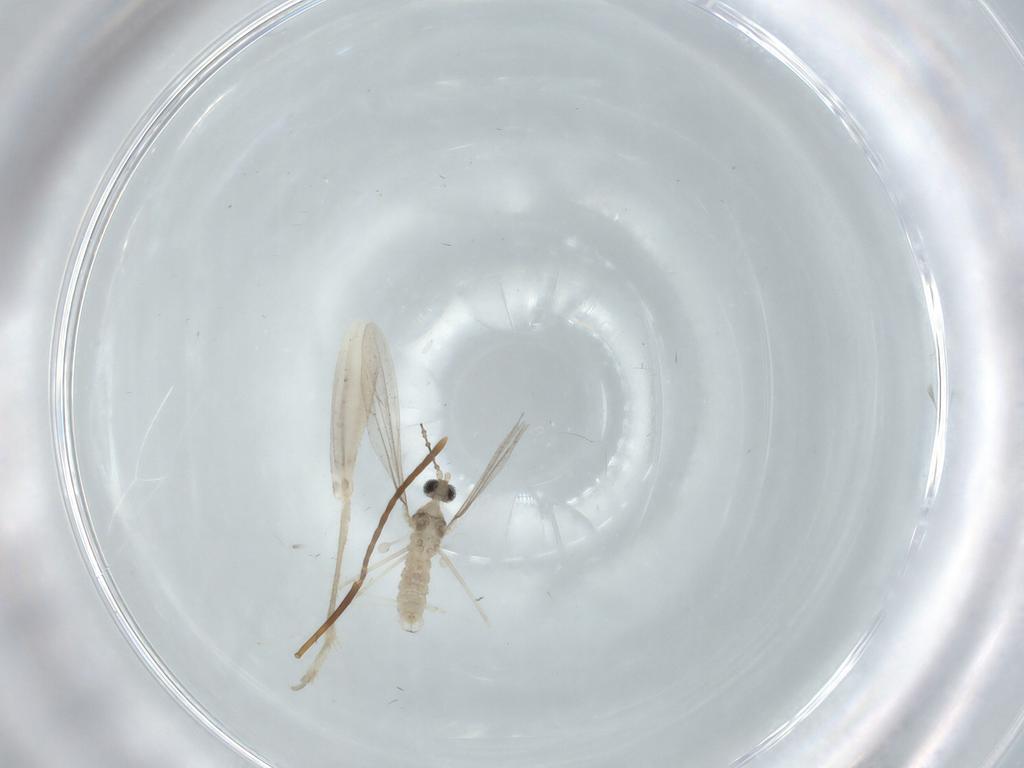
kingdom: Animalia
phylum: Arthropoda
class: Insecta
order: Diptera
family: Cecidomyiidae
